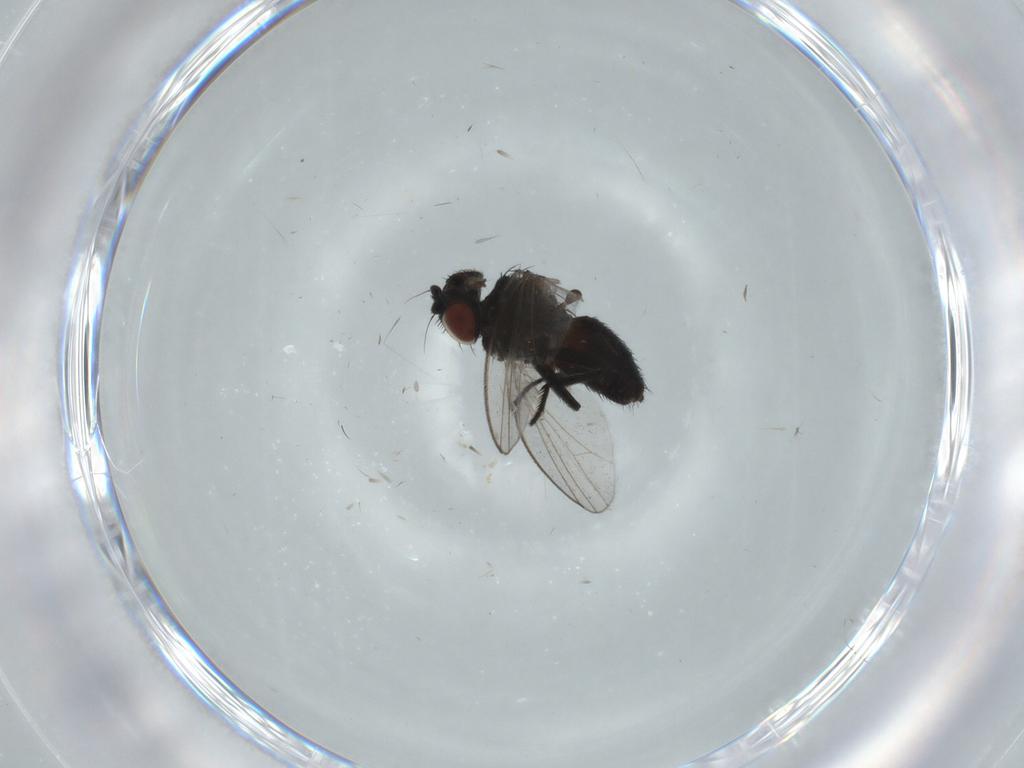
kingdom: Animalia
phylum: Arthropoda
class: Insecta
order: Diptera
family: Milichiidae
